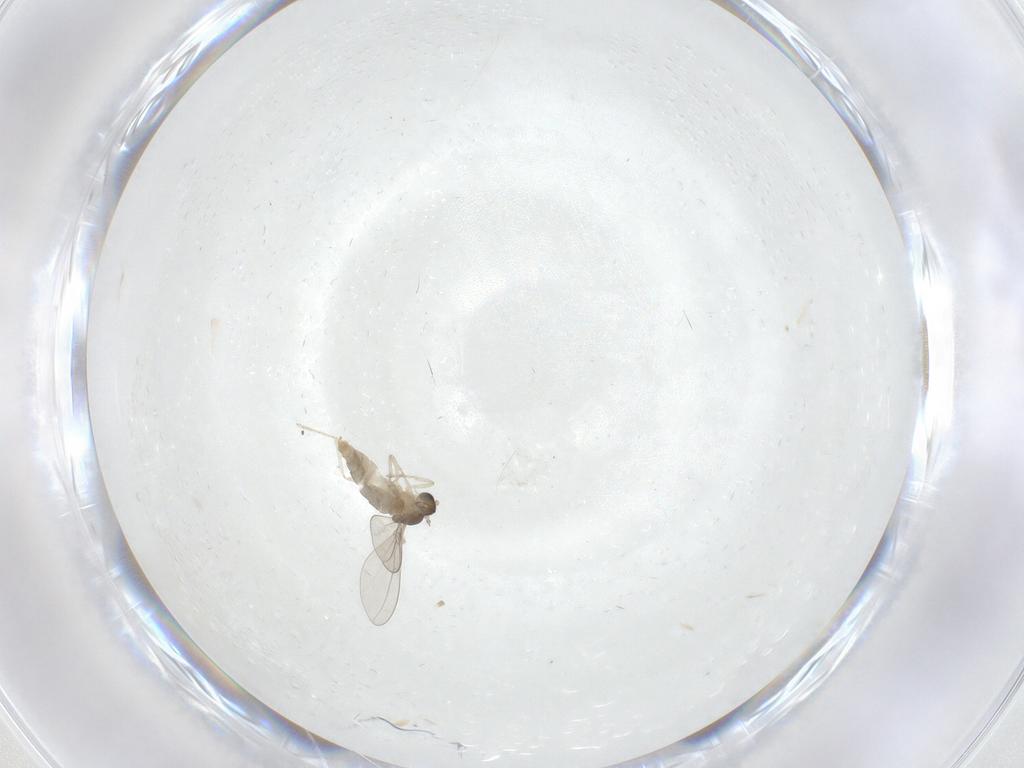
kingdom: Animalia
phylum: Arthropoda
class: Insecta
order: Diptera
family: Cecidomyiidae
